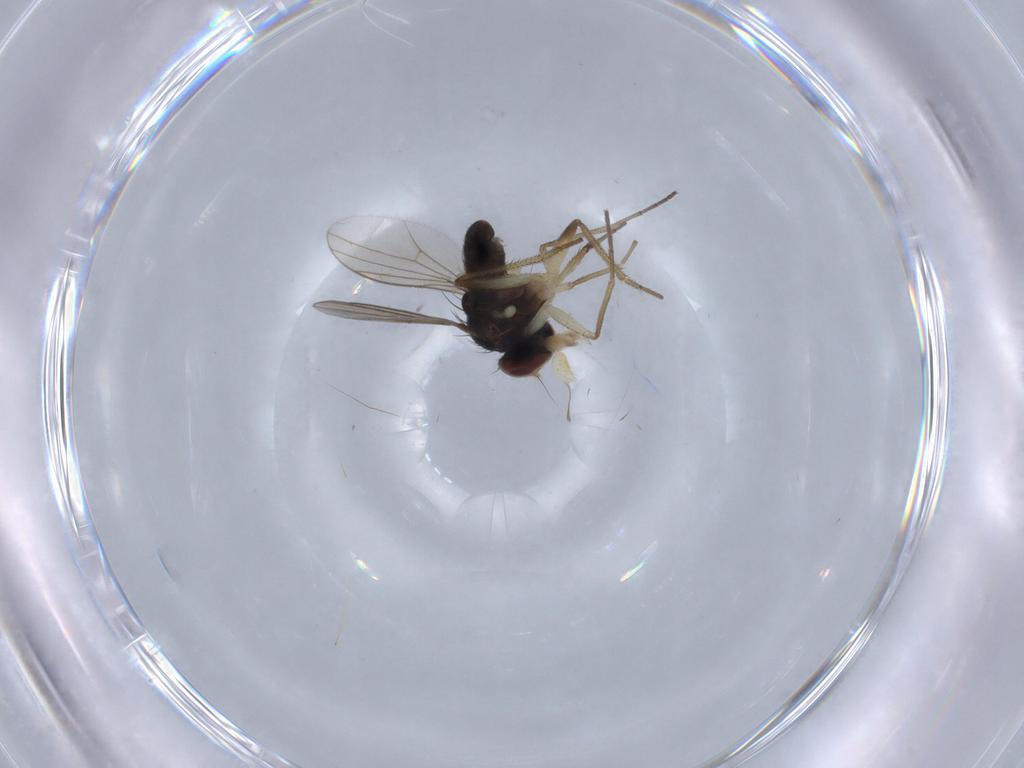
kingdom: Animalia
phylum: Arthropoda
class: Insecta
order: Diptera
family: Dolichopodidae
